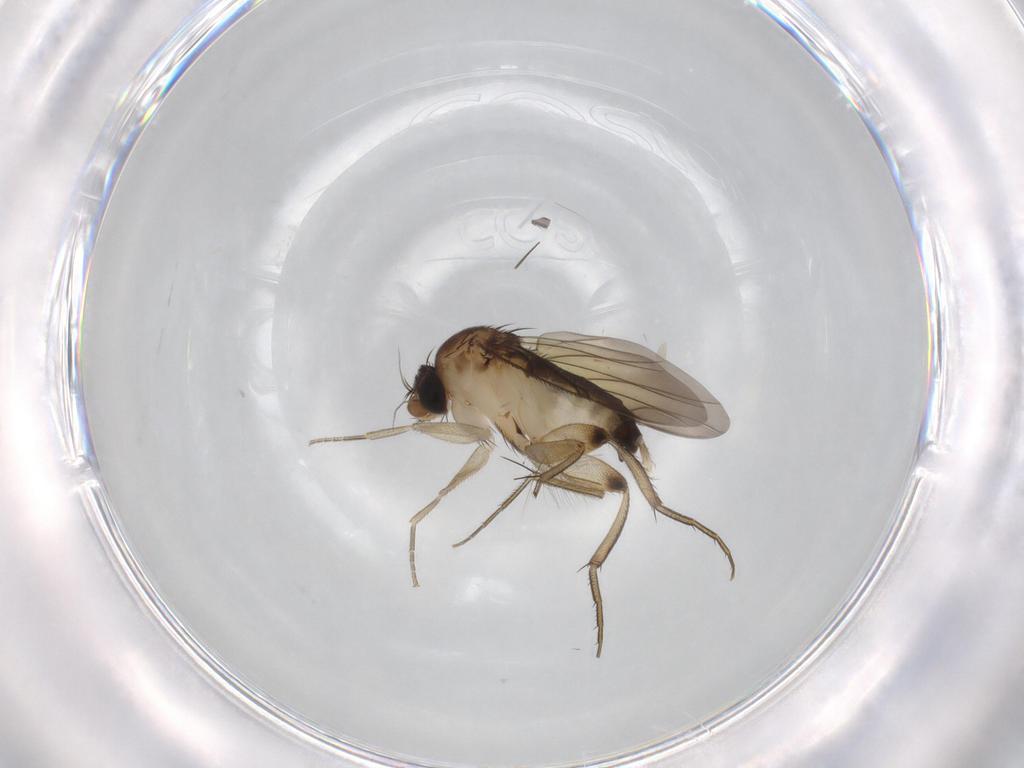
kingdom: Animalia
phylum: Arthropoda
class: Insecta
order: Diptera
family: Phoridae
